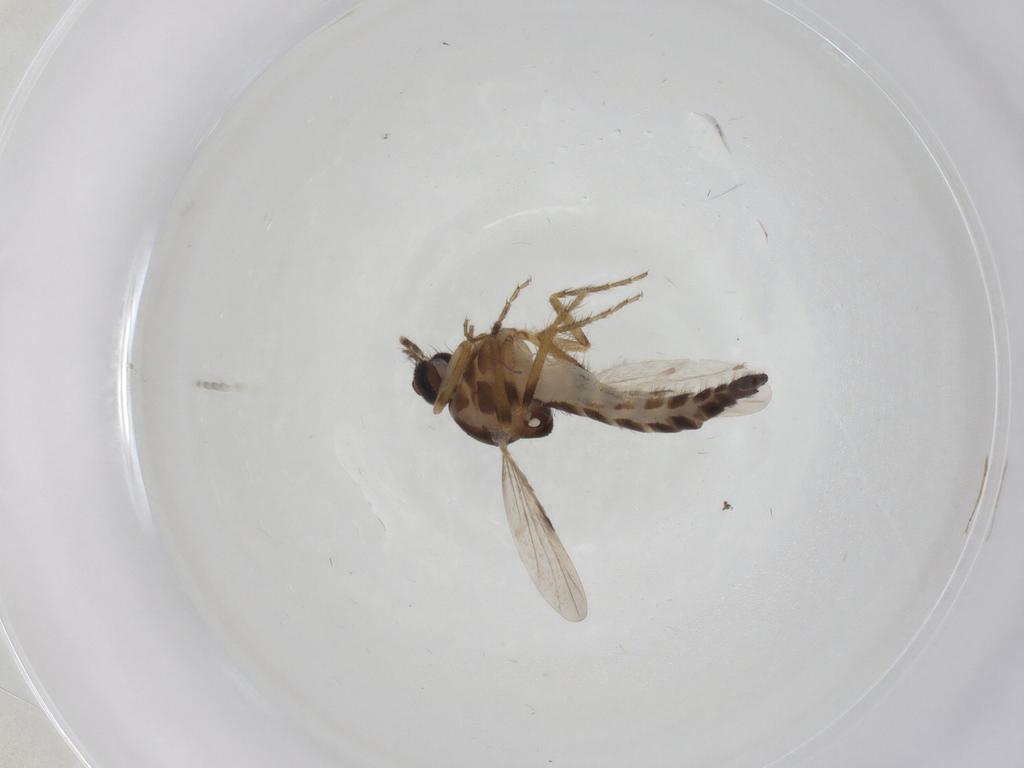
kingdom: Animalia
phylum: Arthropoda
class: Insecta
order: Diptera
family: Ceratopogonidae
